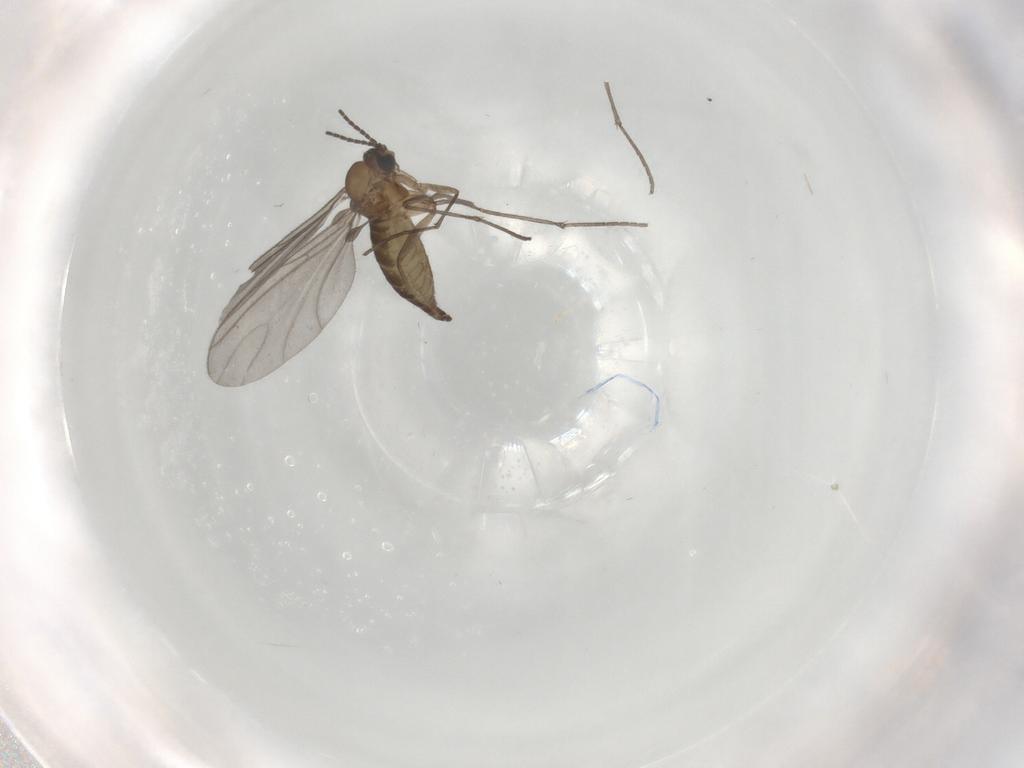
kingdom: Animalia
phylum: Arthropoda
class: Insecta
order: Diptera
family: Sciaridae
